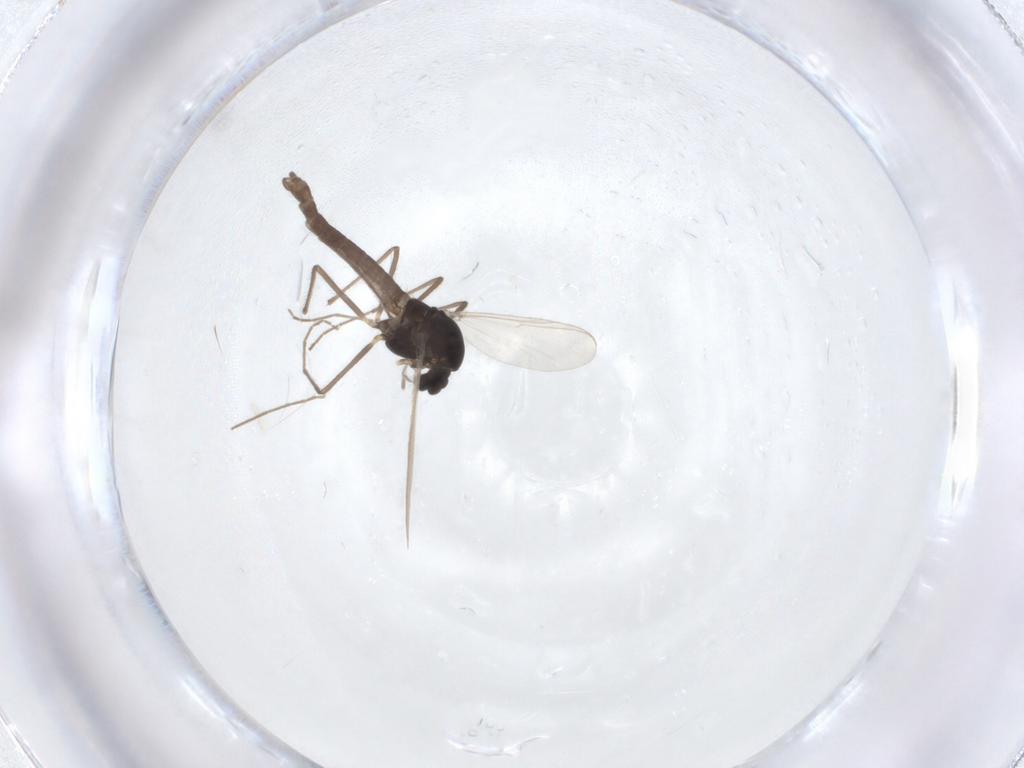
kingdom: Animalia
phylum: Arthropoda
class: Insecta
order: Diptera
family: Chironomidae
